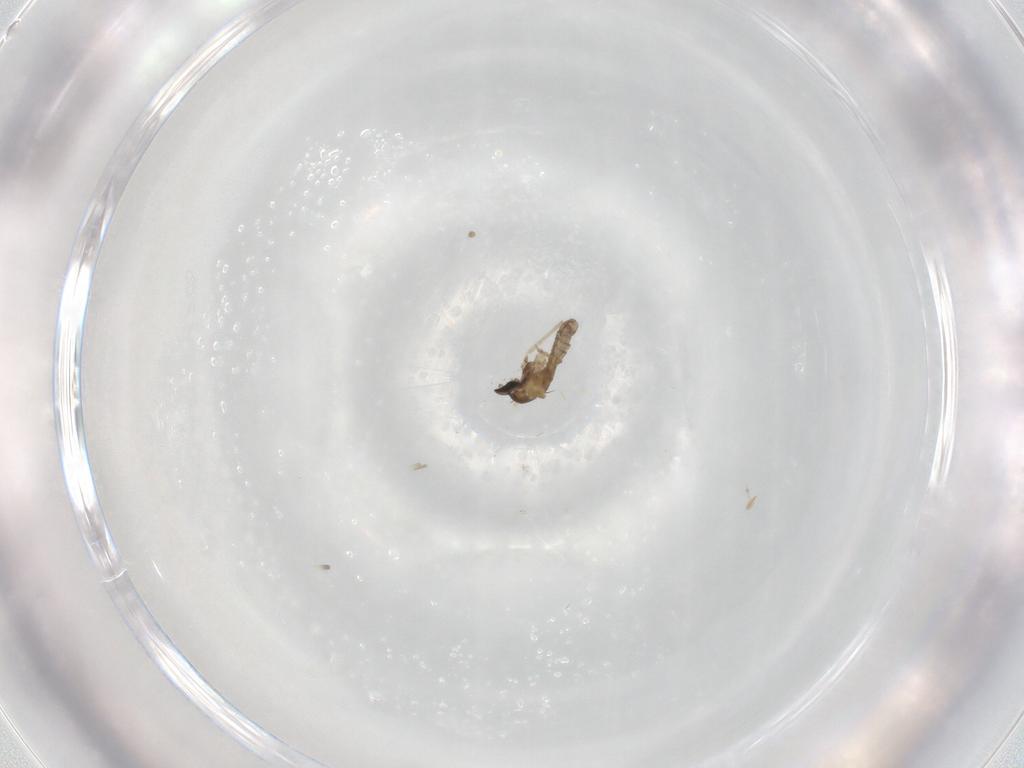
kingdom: Animalia
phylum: Arthropoda
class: Insecta
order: Diptera
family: Cecidomyiidae
